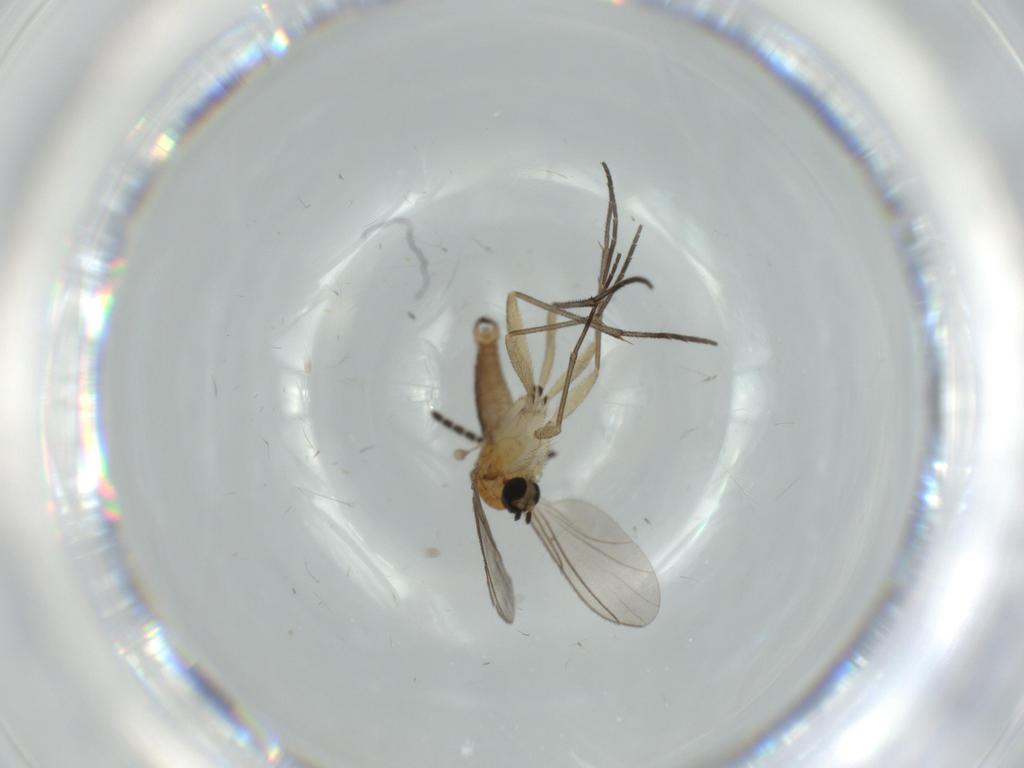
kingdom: Animalia
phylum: Arthropoda
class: Insecta
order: Diptera
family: Sciaridae
